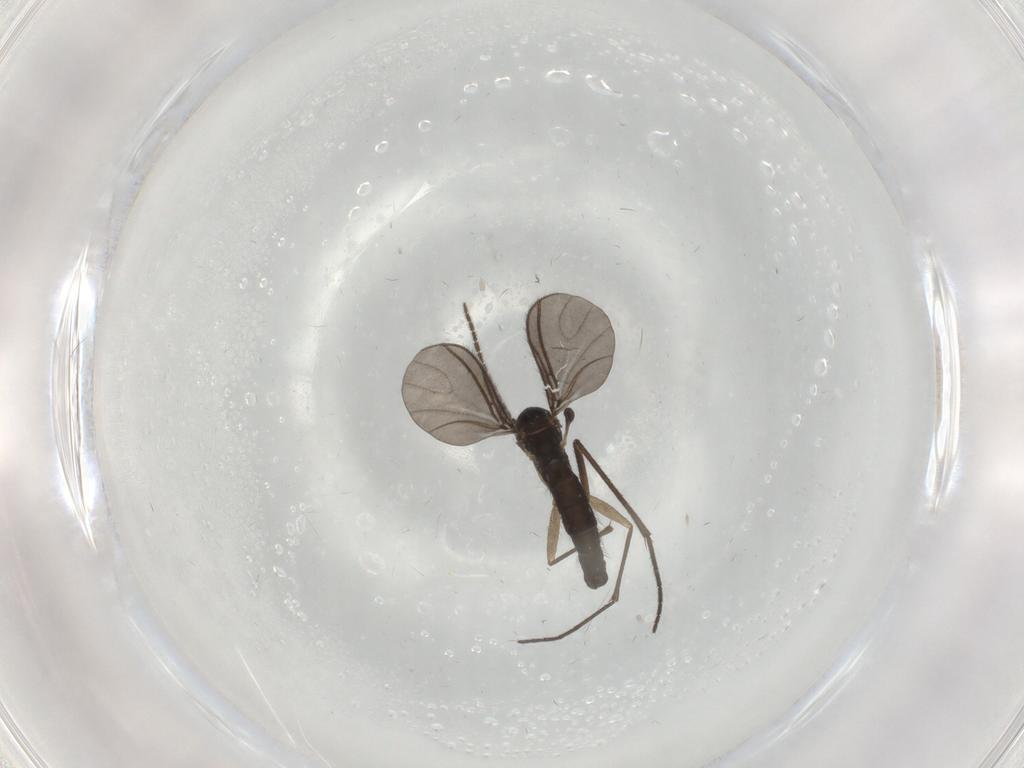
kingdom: Animalia
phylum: Arthropoda
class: Insecta
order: Diptera
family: Sciaridae
